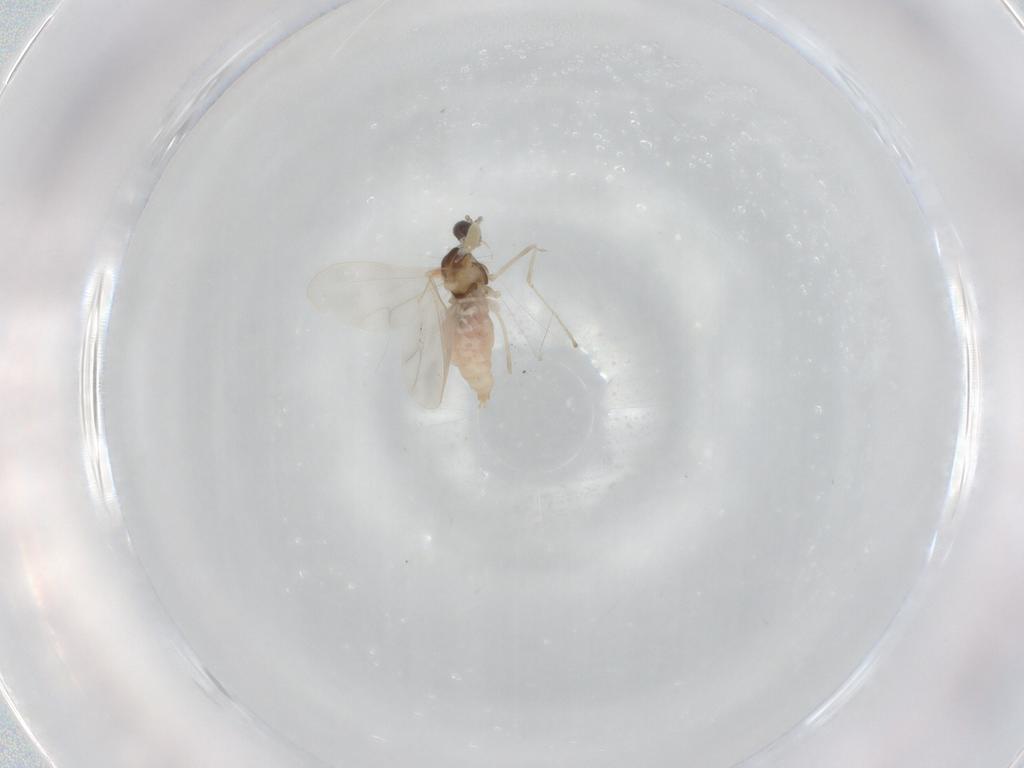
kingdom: Animalia
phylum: Arthropoda
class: Insecta
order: Diptera
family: Cecidomyiidae
